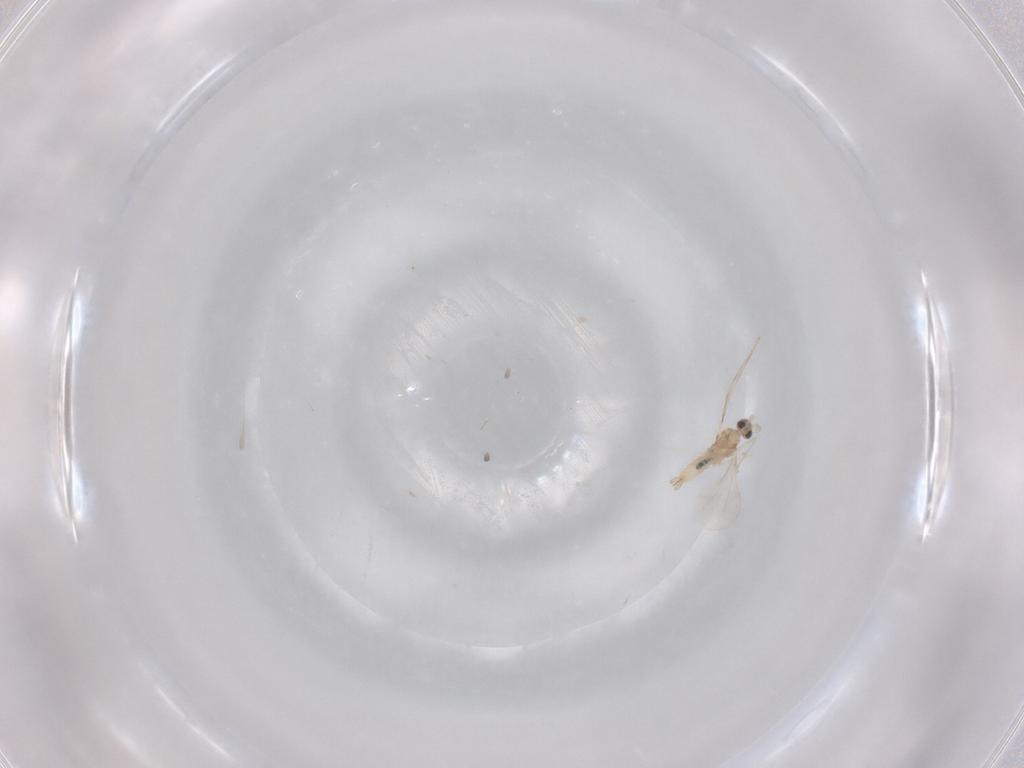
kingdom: Animalia
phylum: Arthropoda
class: Insecta
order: Diptera
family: Cecidomyiidae
